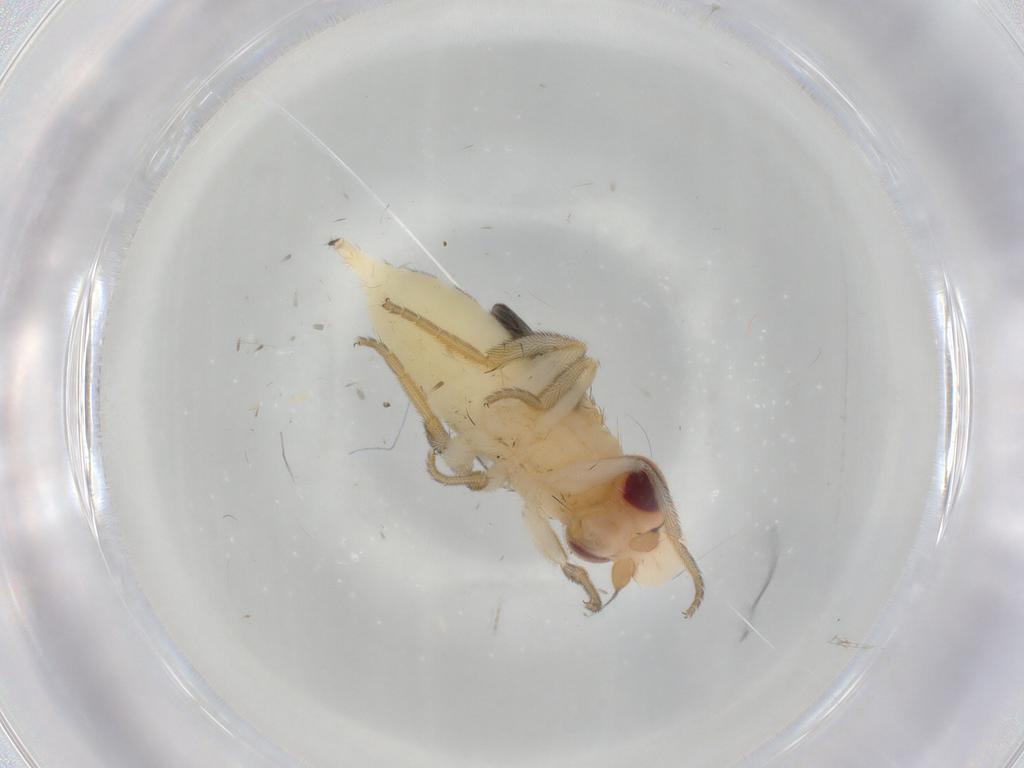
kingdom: Animalia
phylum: Arthropoda
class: Insecta
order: Diptera
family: Chloropidae
